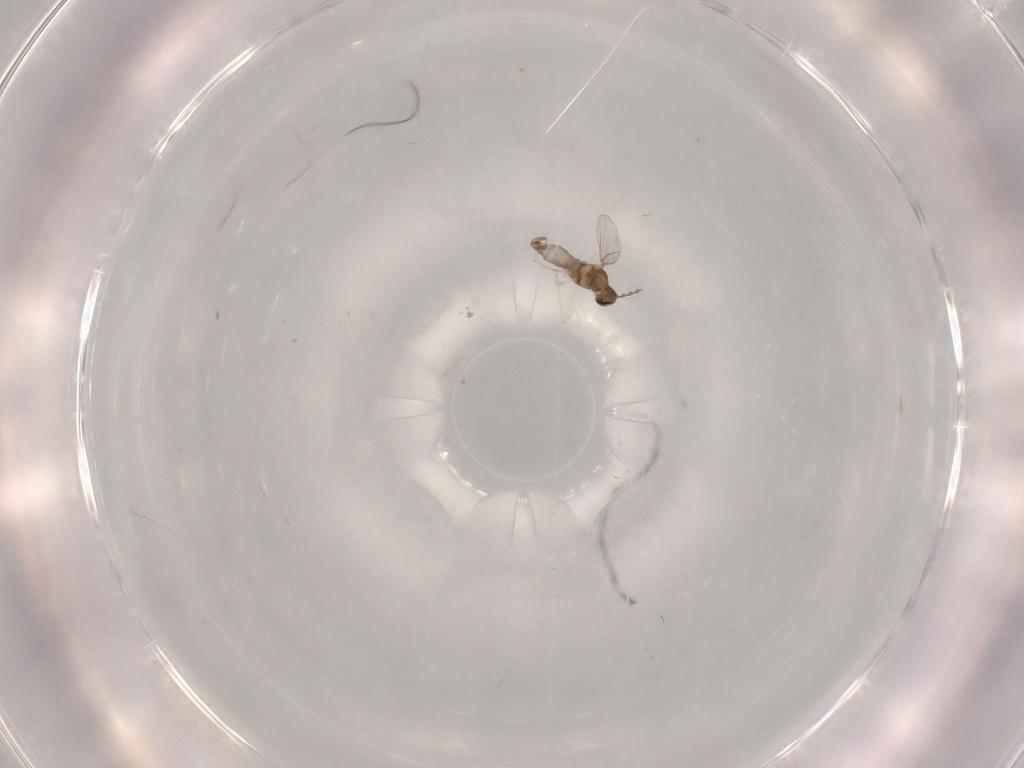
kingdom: Animalia
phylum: Arthropoda
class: Insecta
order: Diptera
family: Cecidomyiidae
